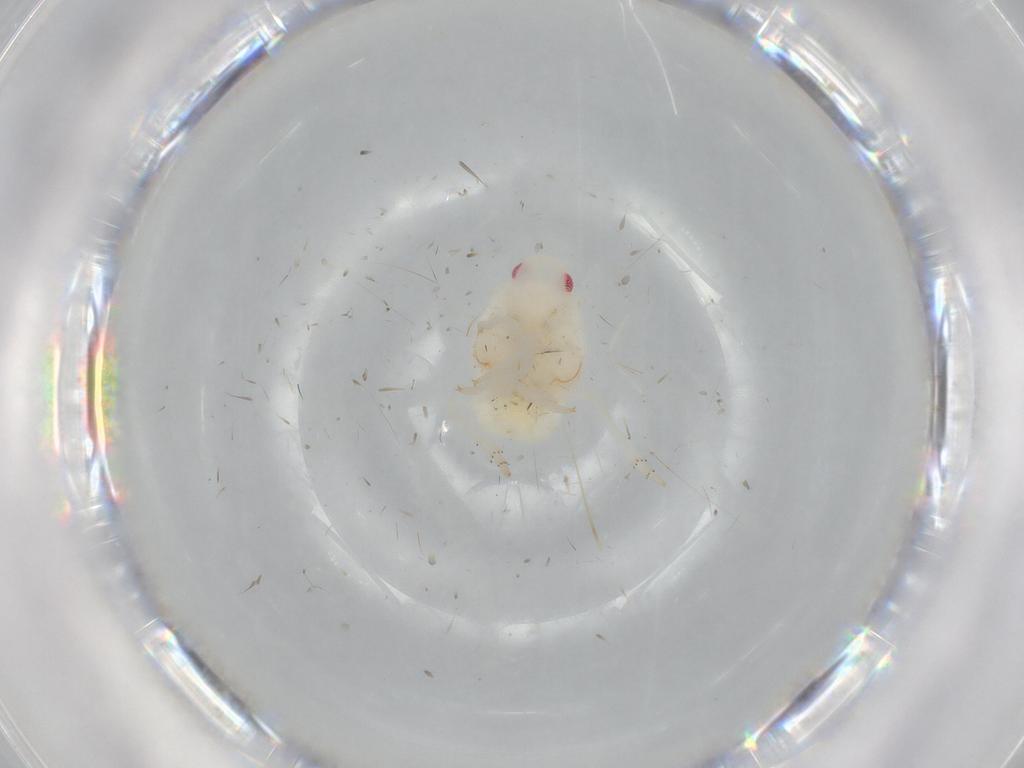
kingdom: Animalia
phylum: Arthropoda
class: Insecta
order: Hemiptera
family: Flatidae
